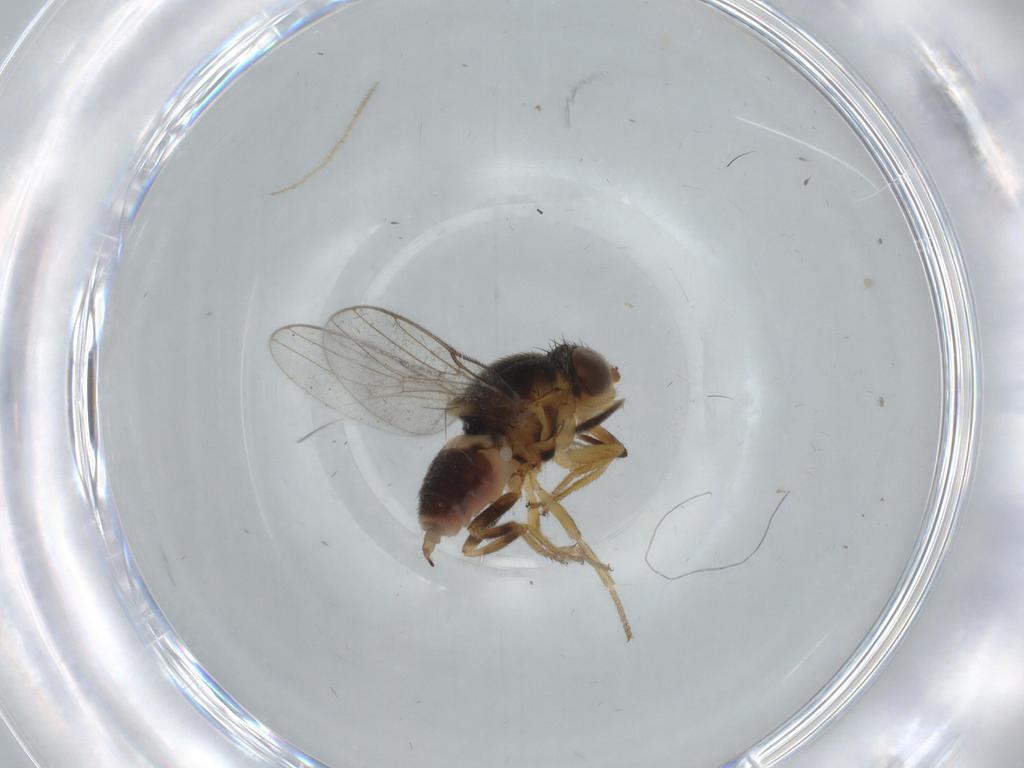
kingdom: Animalia
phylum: Arthropoda
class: Insecta
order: Diptera
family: Chloropidae
